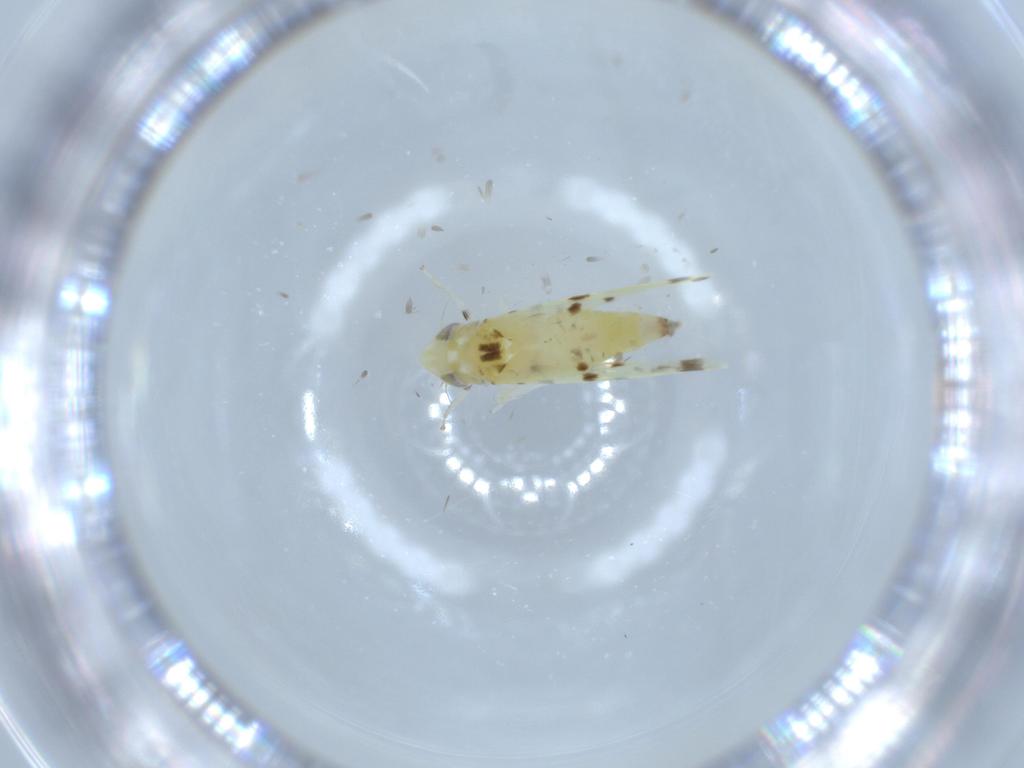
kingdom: Animalia
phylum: Arthropoda
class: Insecta
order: Hemiptera
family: Cicadellidae
